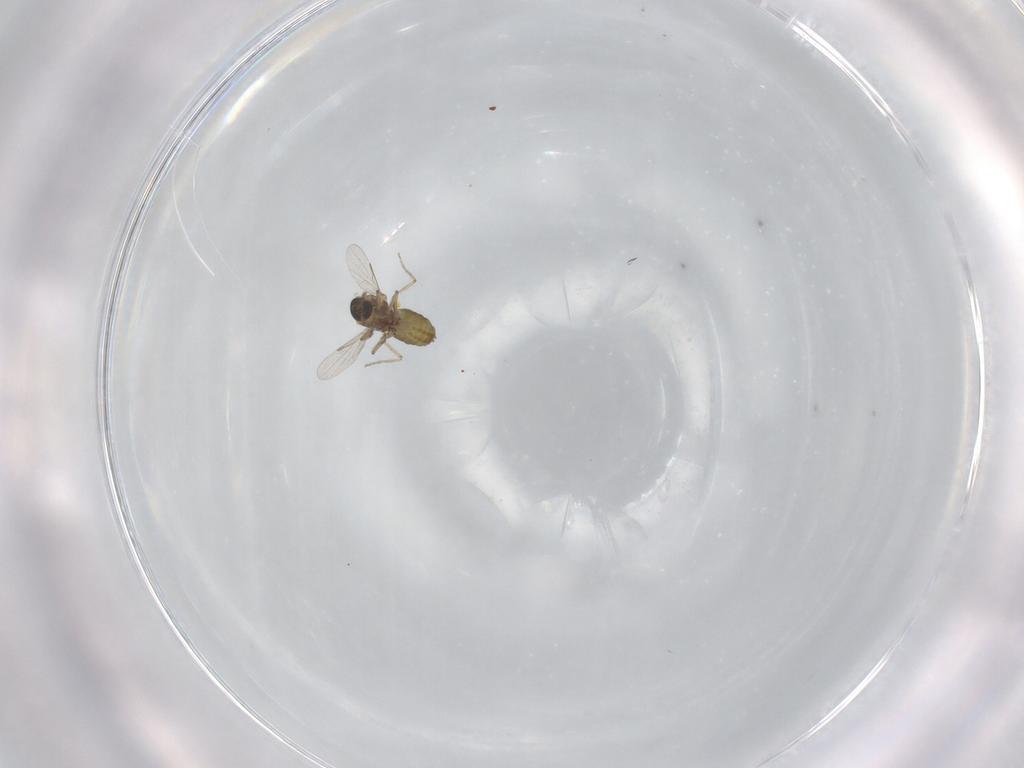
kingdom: Animalia
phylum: Arthropoda
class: Insecta
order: Diptera
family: Ceratopogonidae
